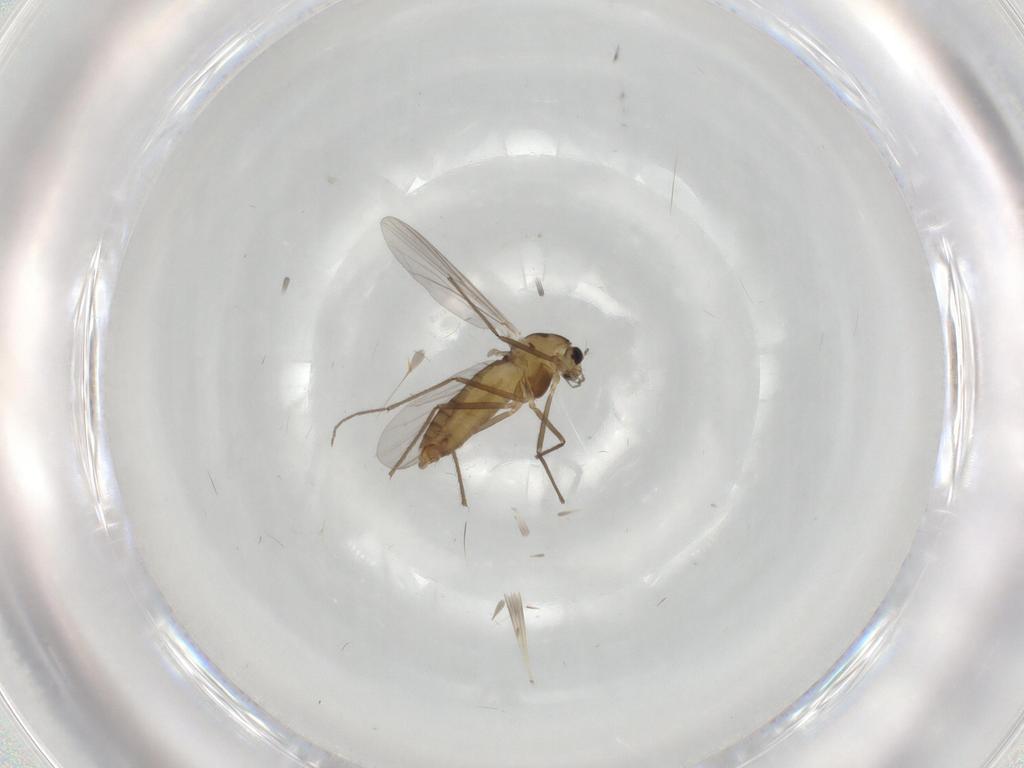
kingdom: Animalia
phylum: Arthropoda
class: Insecta
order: Diptera
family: Chironomidae
